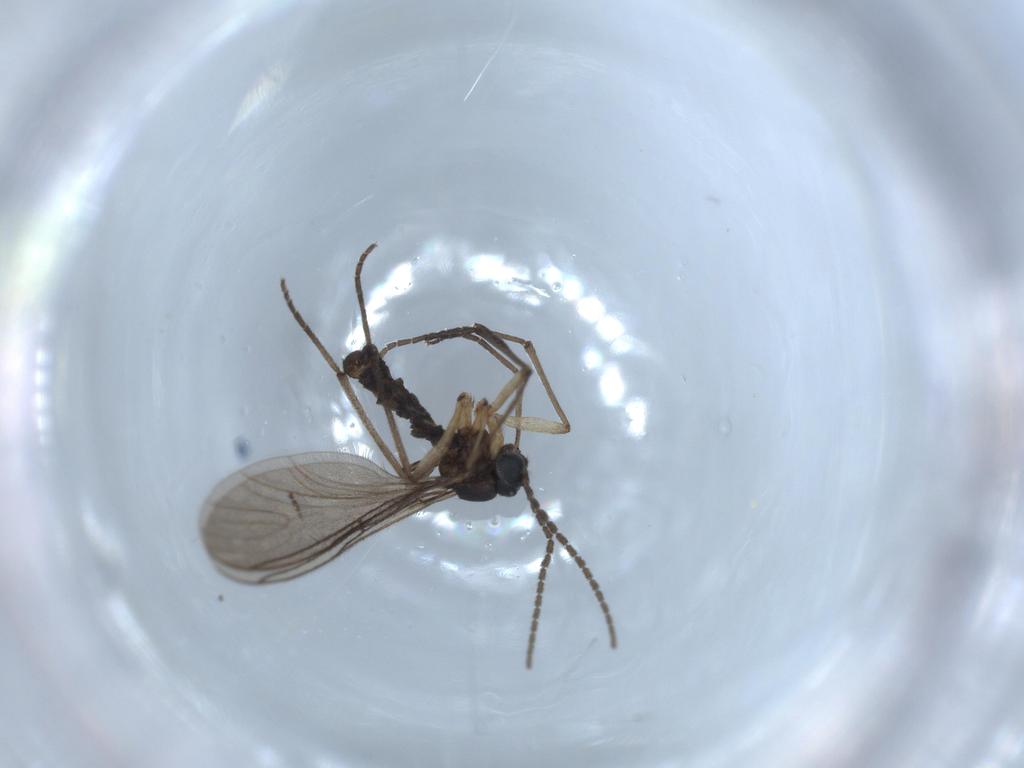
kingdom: Animalia
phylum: Arthropoda
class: Insecta
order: Diptera
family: Sciaridae
